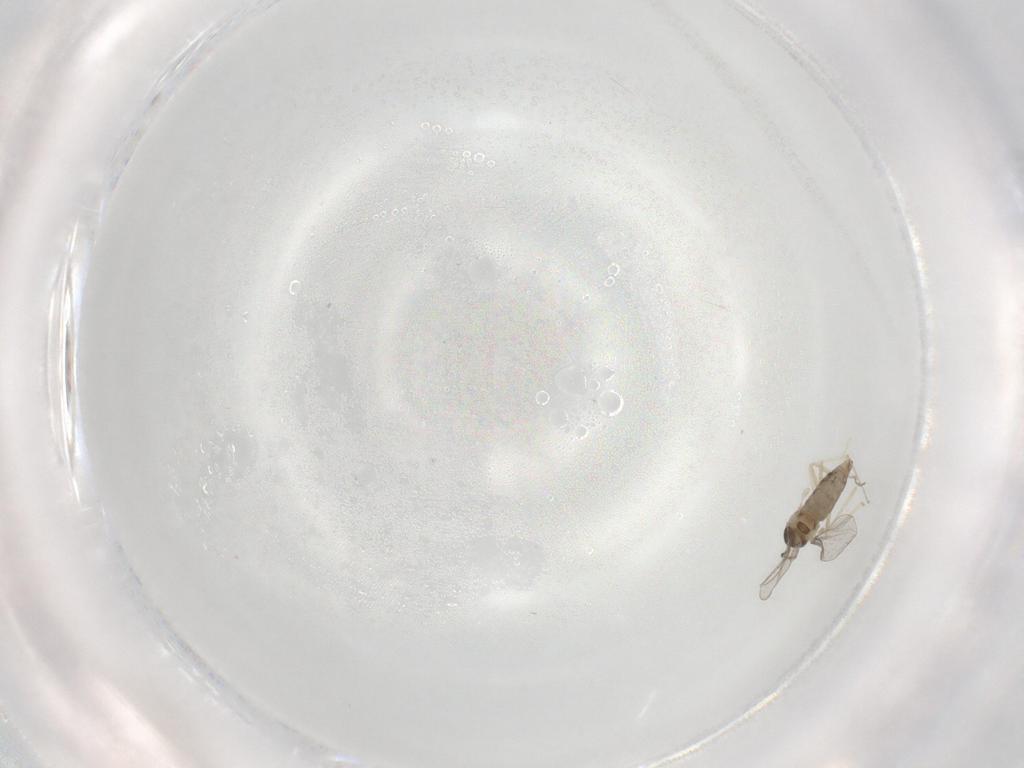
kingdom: Animalia
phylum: Arthropoda
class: Insecta
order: Diptera
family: Cecidomyiidae
